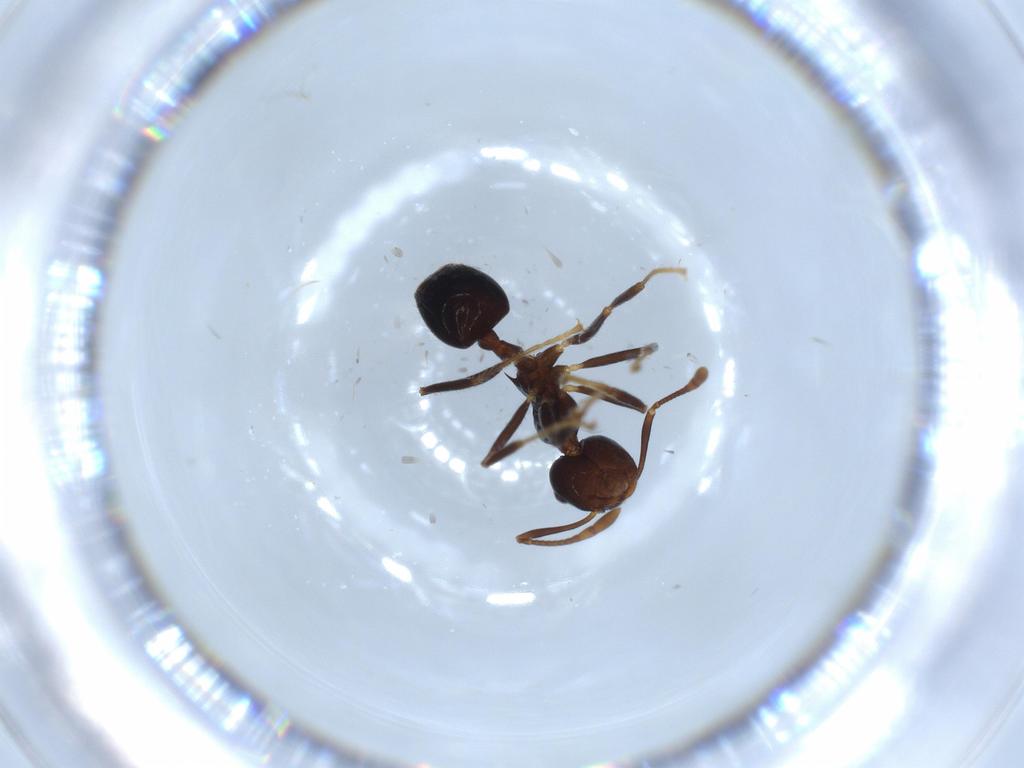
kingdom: Animalia
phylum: Arthropoda
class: Insecta
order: Hymenoptera
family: Formicidae
